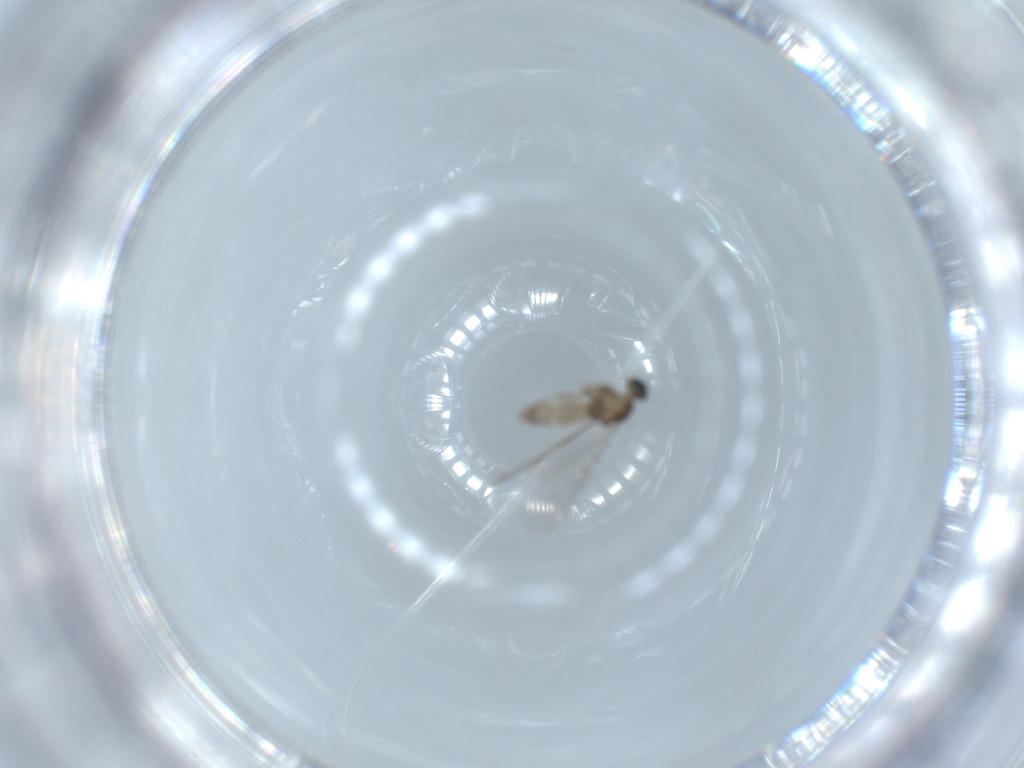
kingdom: Animalia
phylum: Arthropoda
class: Insecta
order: Diptera
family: Cecidomyiidae
